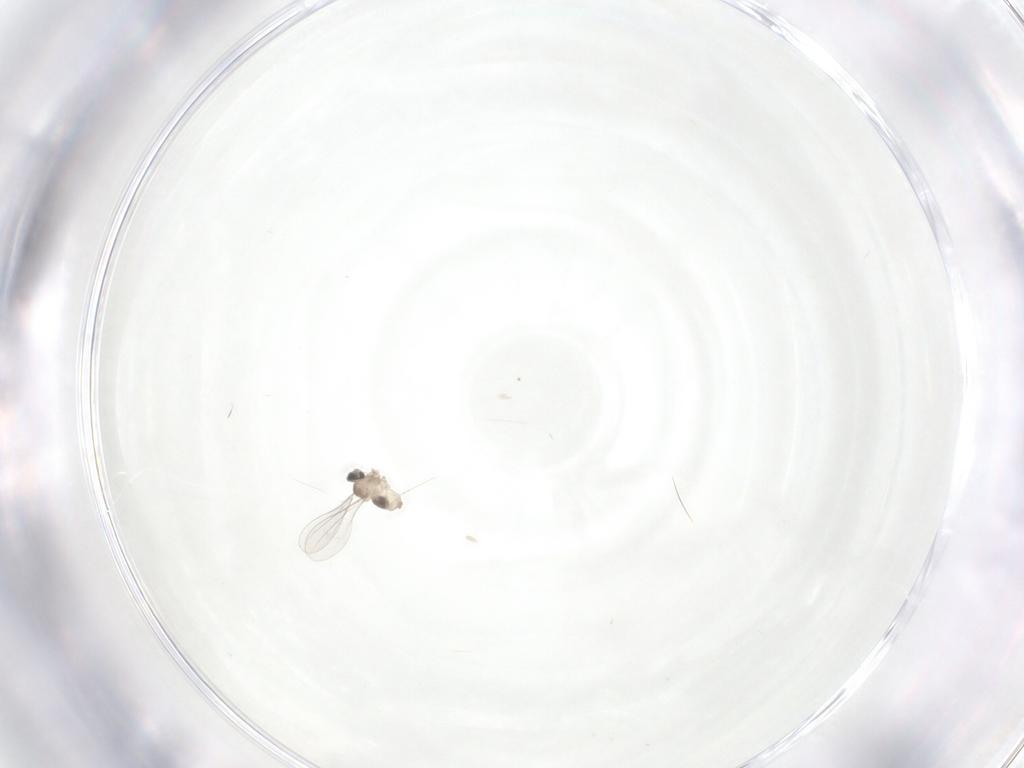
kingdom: Animalia
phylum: Arthropoda
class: Insecta
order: Diptera
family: Cecidomyiidae
